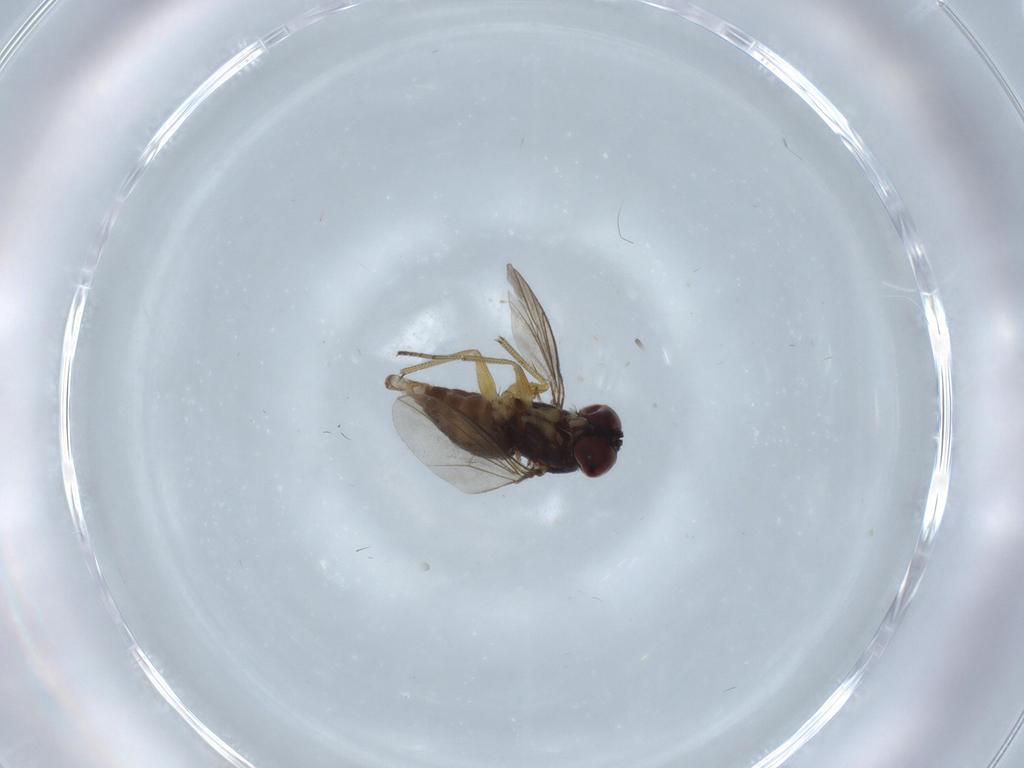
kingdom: Animalia
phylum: Arthropoda
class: Insecta
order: Diptera
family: Dolichopodidae
